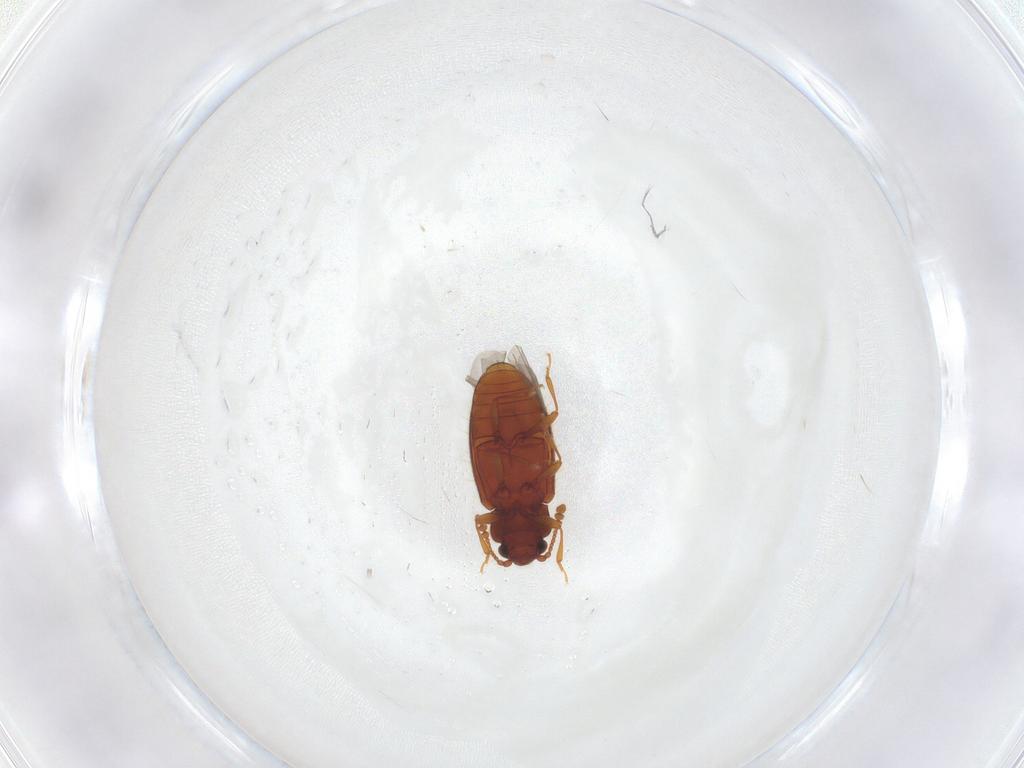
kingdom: Animalia
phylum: Arthropoda
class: Insecta
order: Coleoptera
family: Cryptophagidae
